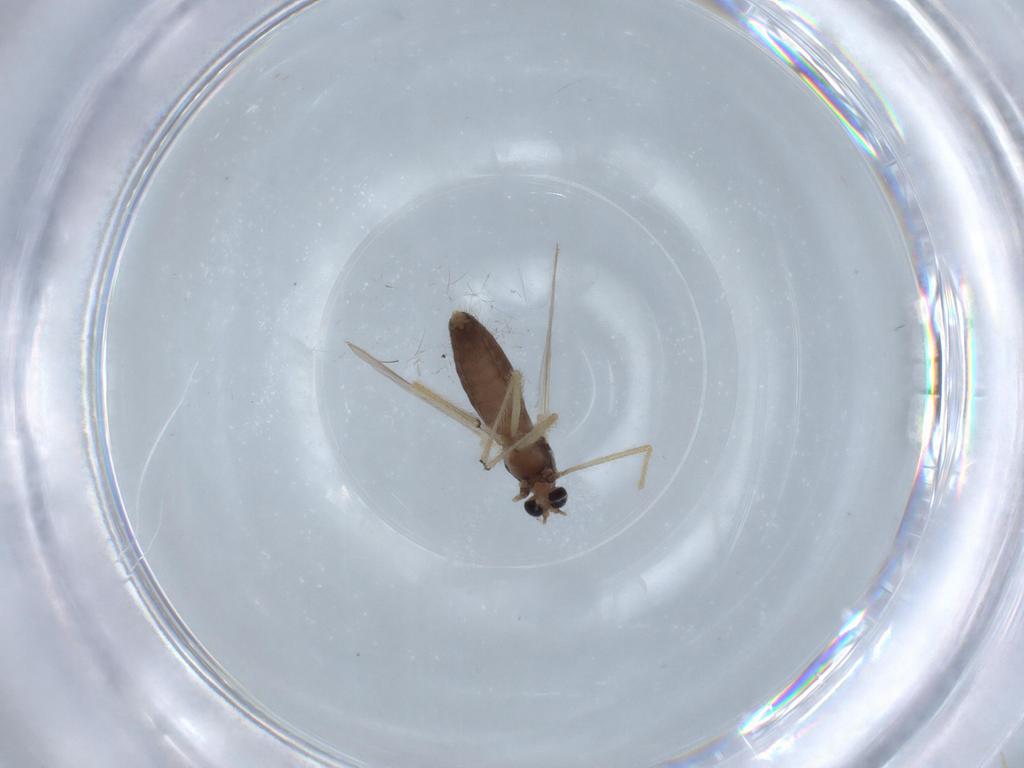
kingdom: Animalia
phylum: Arthropoda
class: Insecta
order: Diptera
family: Chironomidae
